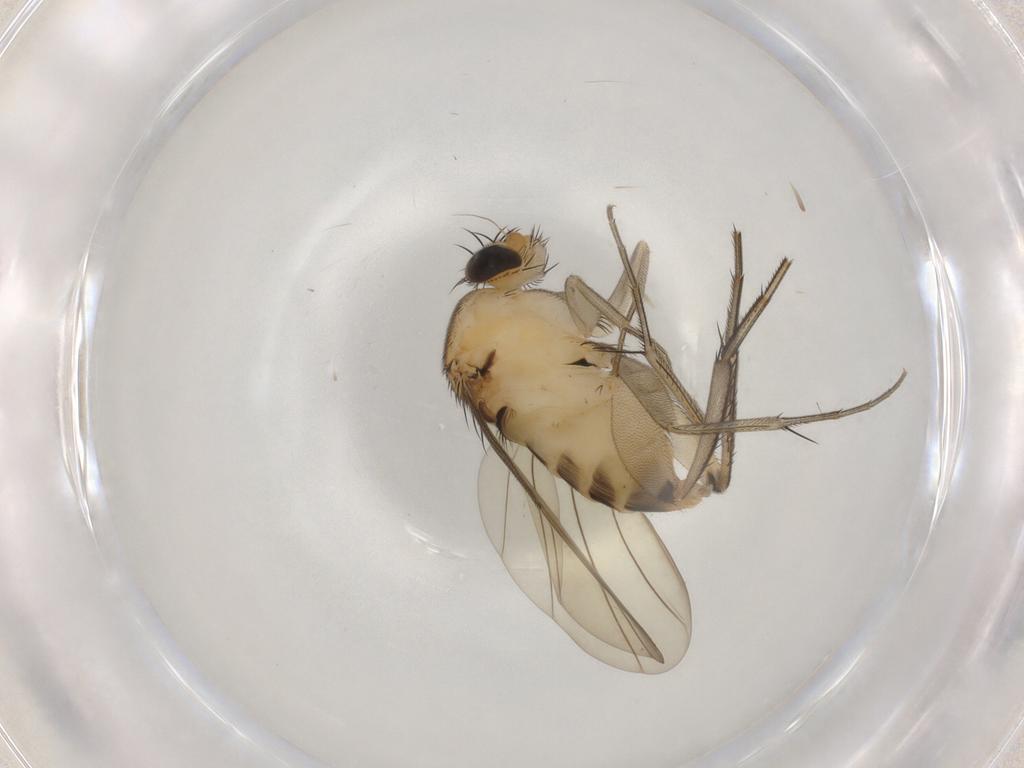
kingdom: Animalia
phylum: Arthropoda
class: Insecta
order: Diptera
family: Phoridae
